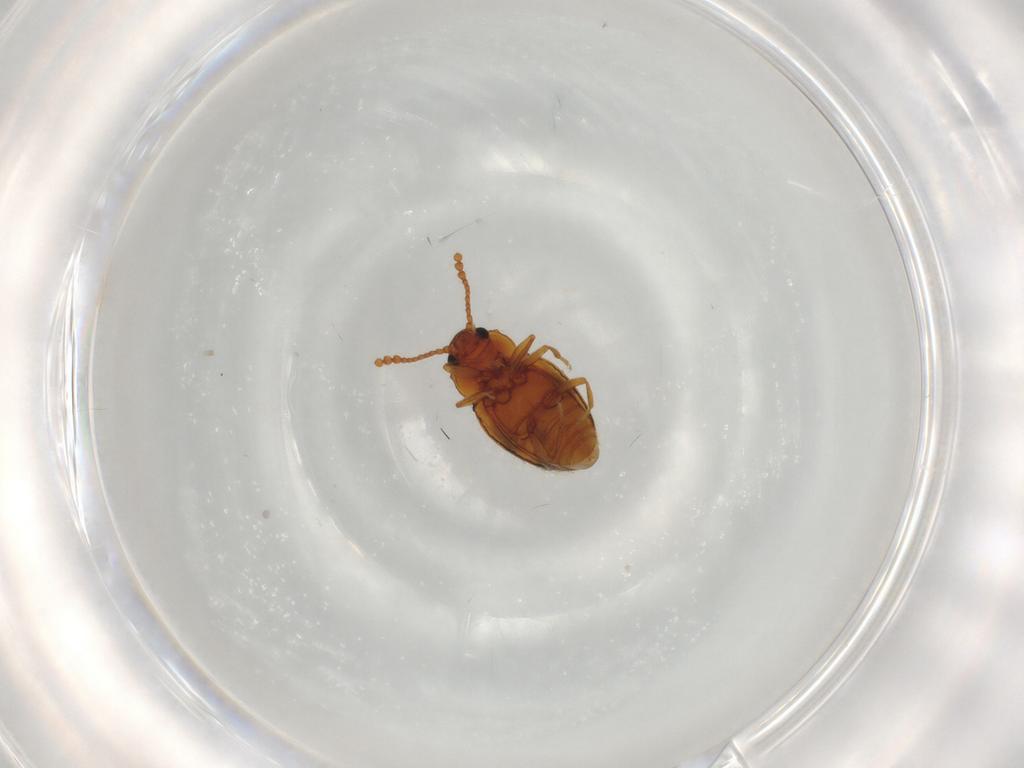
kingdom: Animalia
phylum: Arthropoda
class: Insecta
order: Coleoptera
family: Erotylidae
